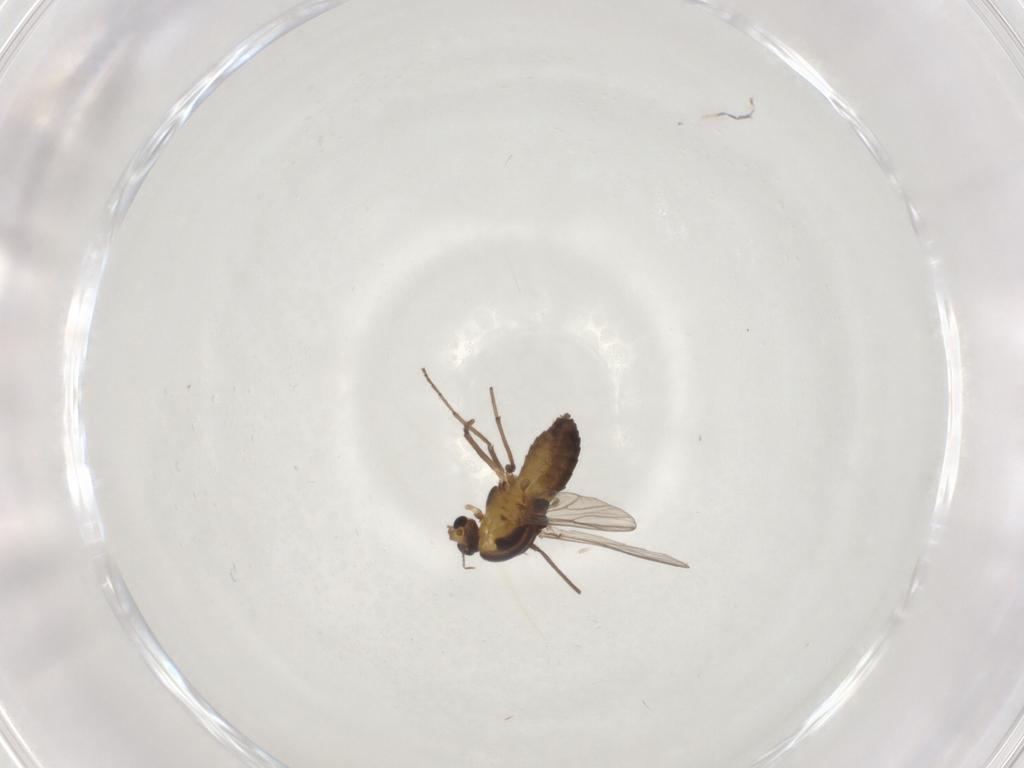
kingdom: Animalia
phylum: Arthropoda
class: Insecta
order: Diptera
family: Chironomidae
